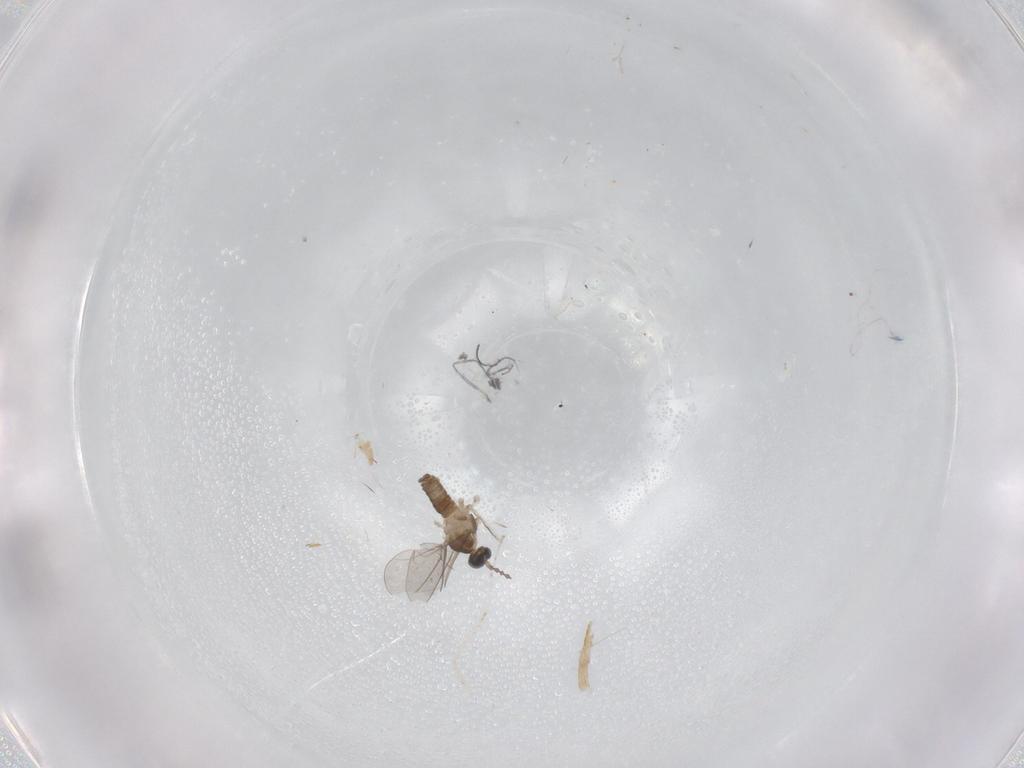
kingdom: Animalia
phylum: Arthropoda
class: Insecta
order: Diptera
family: Cecidomyiidae
